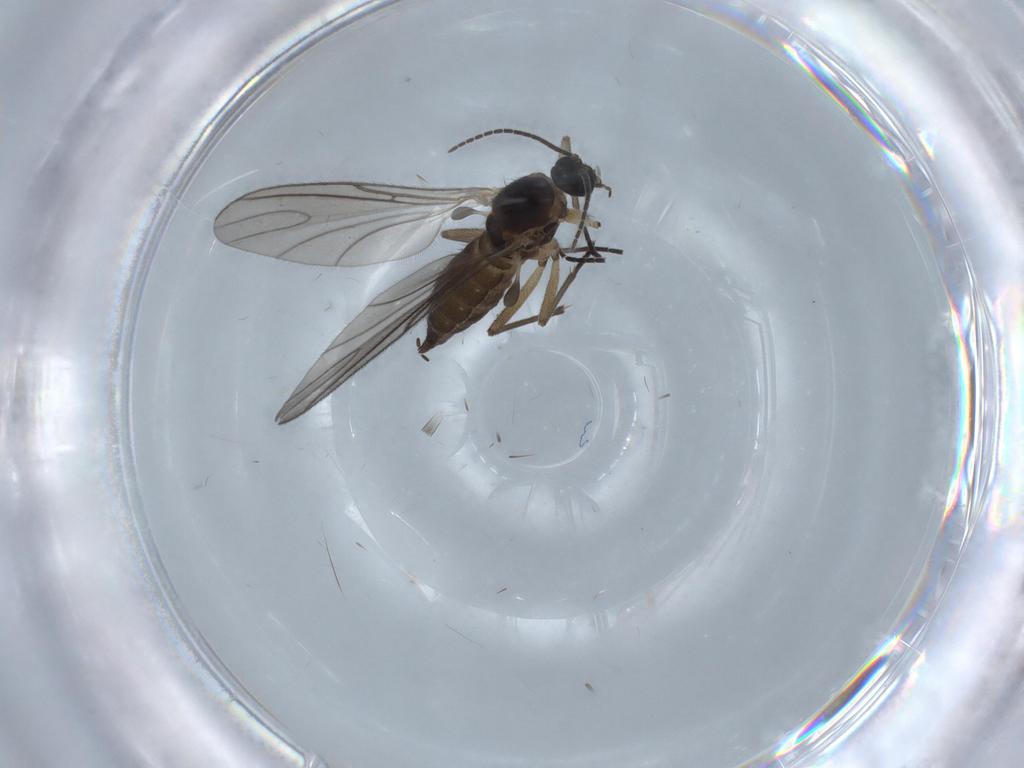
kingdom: Animalia
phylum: Arthropoda
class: Insecta
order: Diptera
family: Sciaridae
